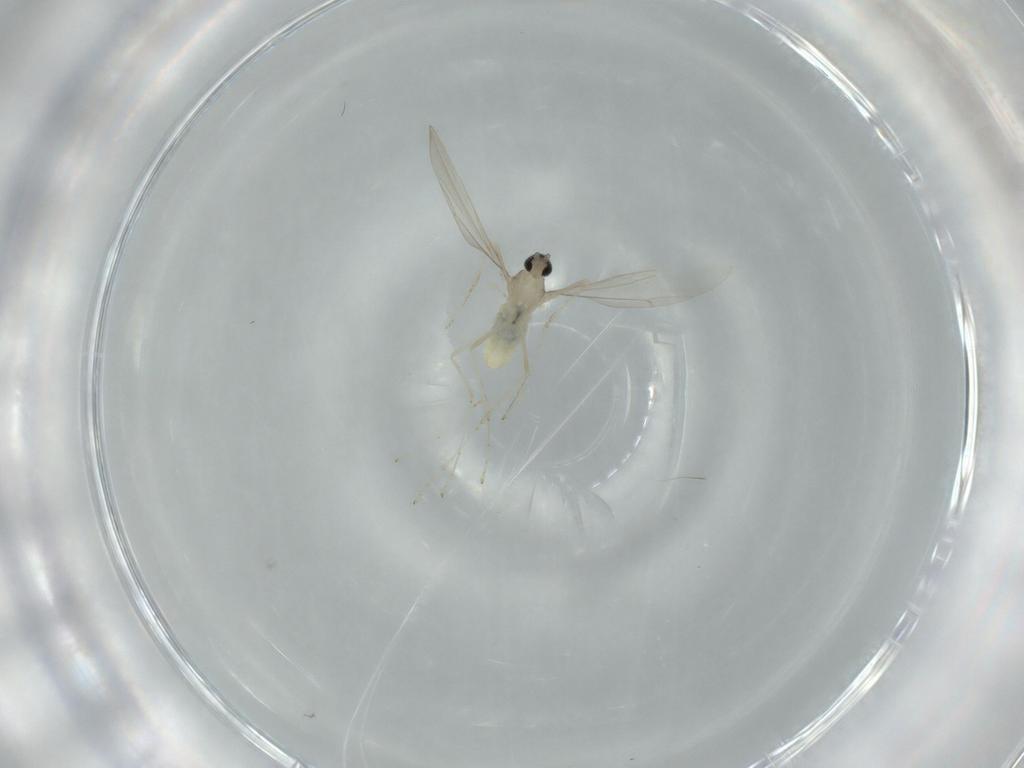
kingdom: Animalia
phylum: Arthropoda
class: Insecta
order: Diptera
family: Cecidomyiidae
